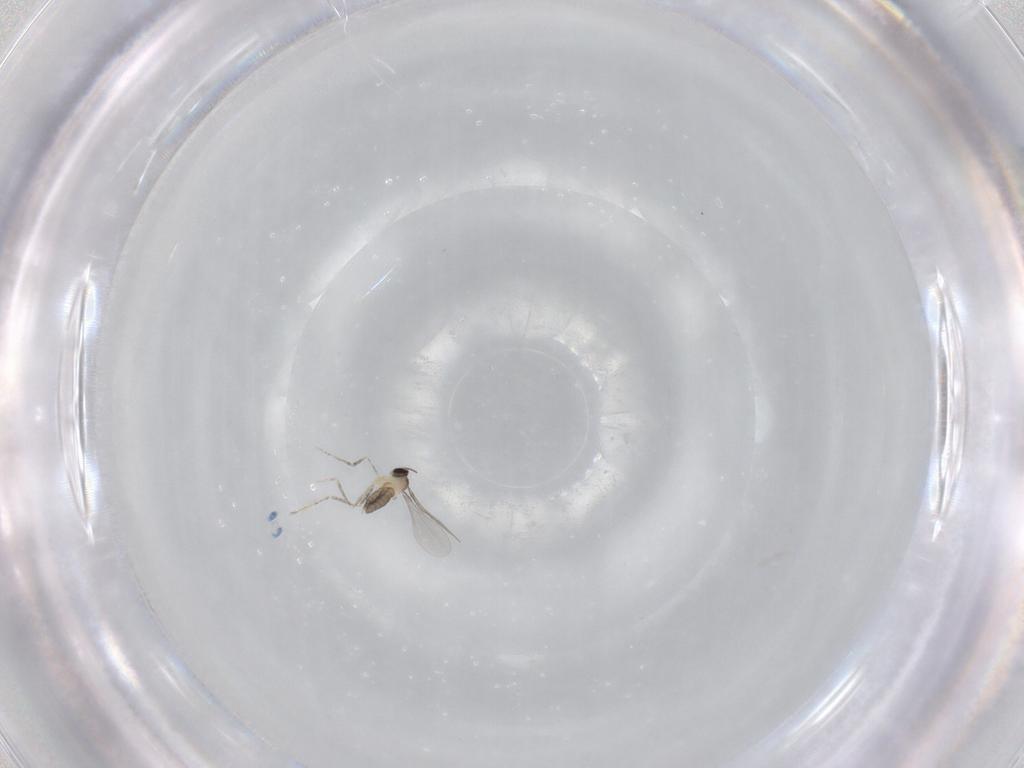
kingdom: Animalia
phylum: Arthropoda
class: Insecta
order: Diptera
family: Cecidomyiidae
